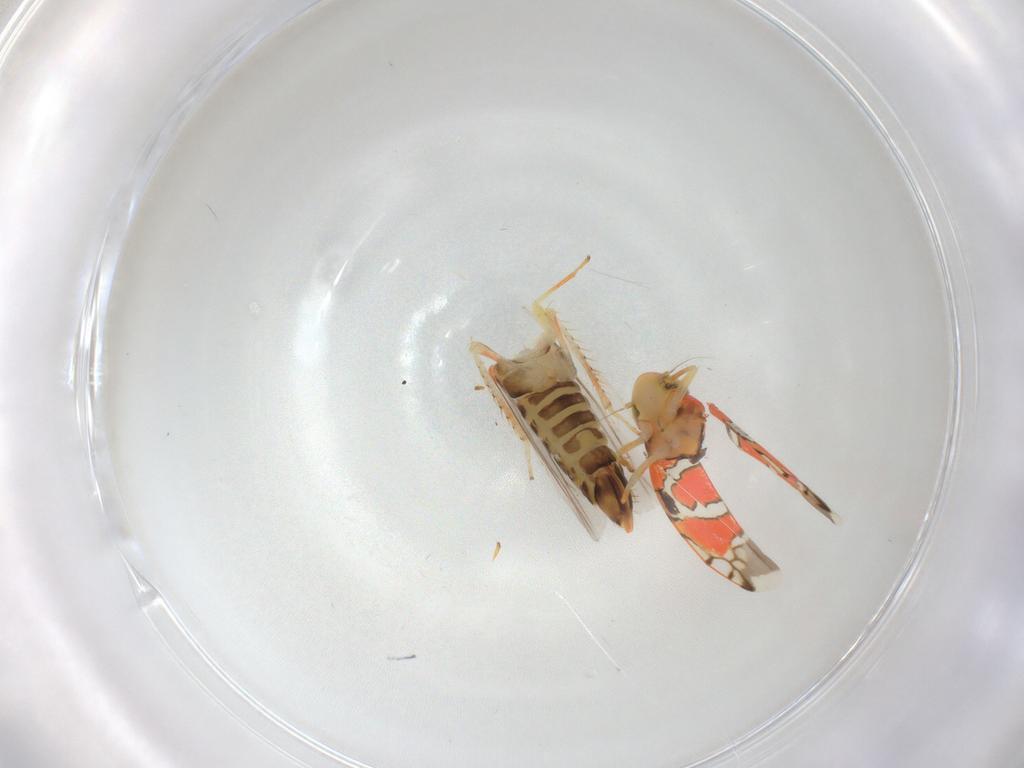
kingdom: Animalia
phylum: Arthropoda
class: Insecta
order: Hemiptera
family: Cicadellidae
